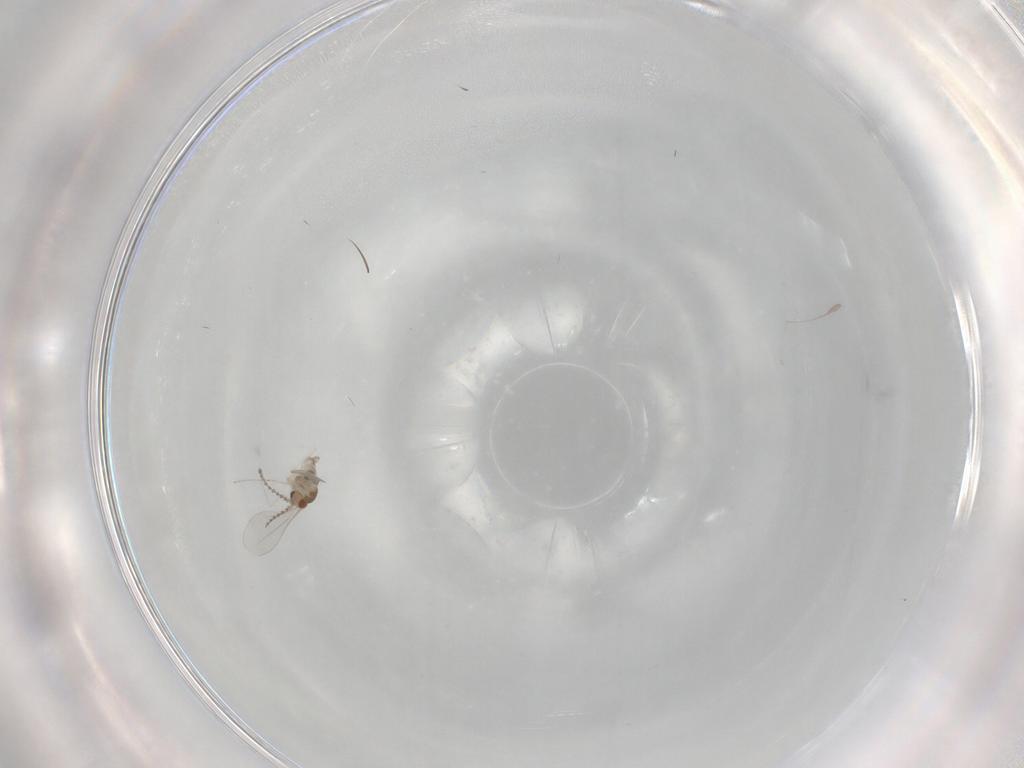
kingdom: Animalia
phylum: Arthropoda
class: Insecta
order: Diptera
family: Cecidomyiidae
